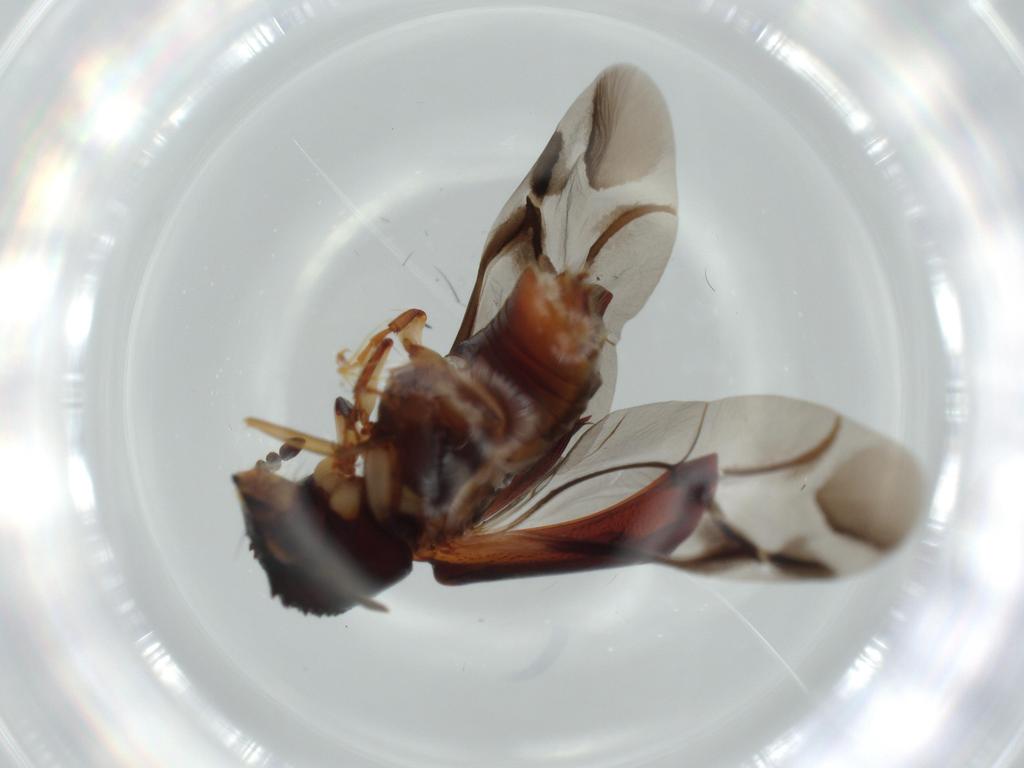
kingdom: Animalia
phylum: Arthropoda
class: Insecta
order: Coleoptera
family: Bostrichidae
